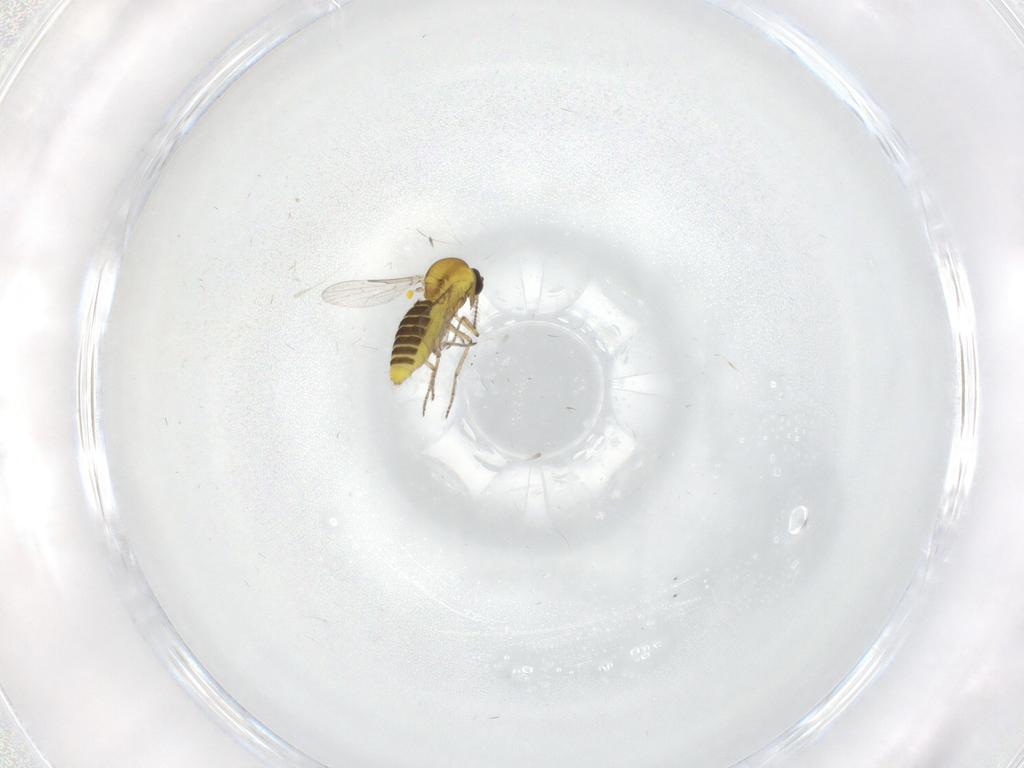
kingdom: Animalia
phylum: Arthropoda
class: Insecta
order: Diptera
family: Ceratopogonidae
